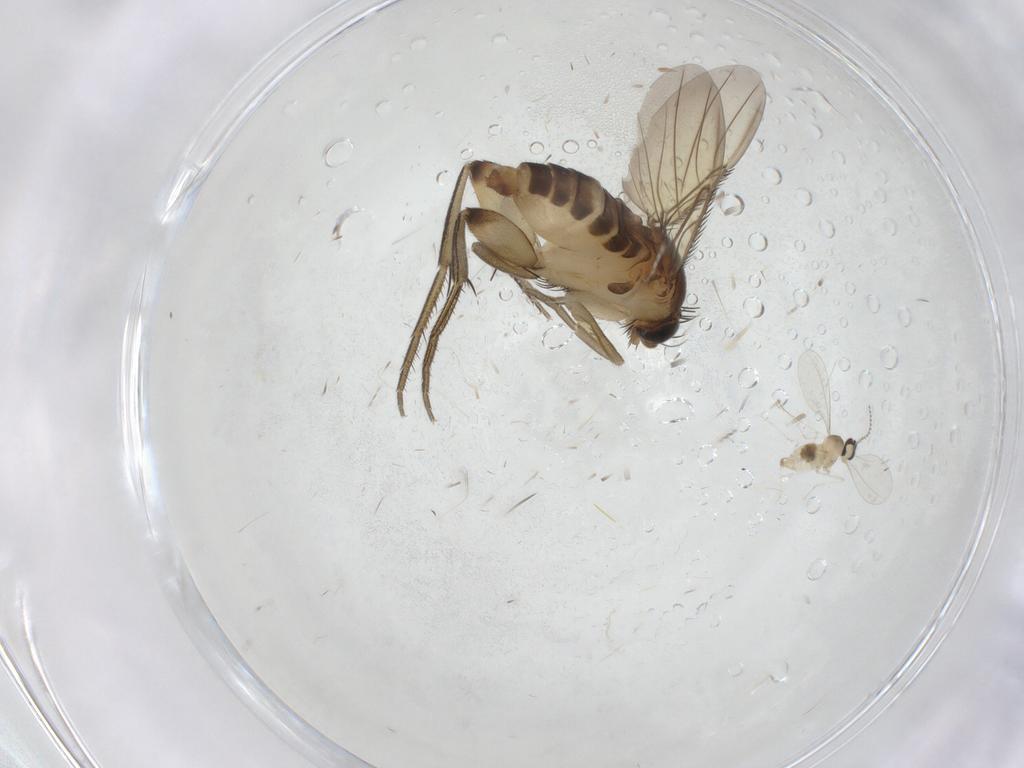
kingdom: Animalia
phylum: Arthropoda
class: Insecta
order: Diptera
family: Phoridae
